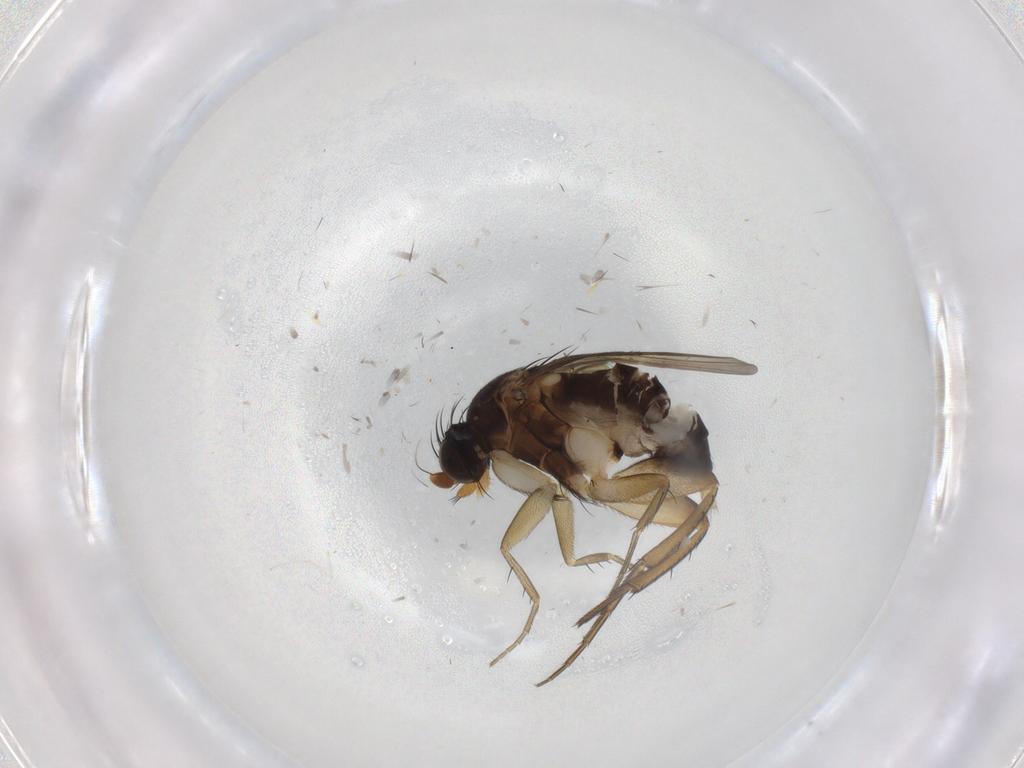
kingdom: Animalia
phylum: Arthropoda
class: Insecta
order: Diptera
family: Phoridae
